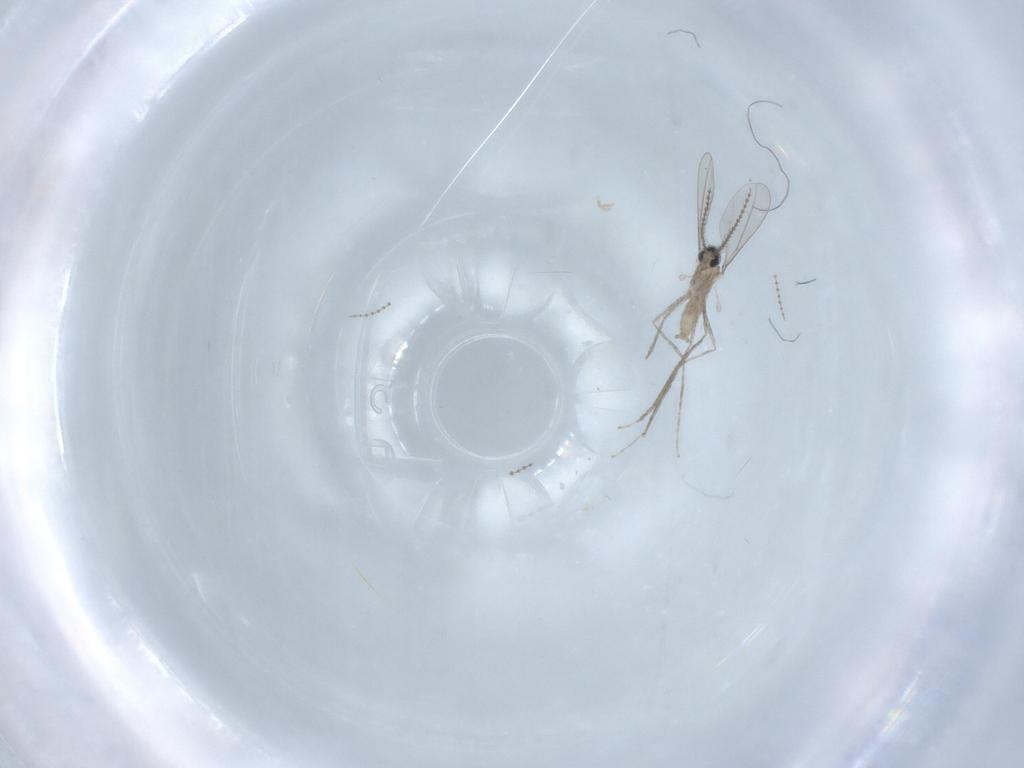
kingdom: Animalia
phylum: Arthropoda
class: Insecta
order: Diptera
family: Cecidomyiidae
